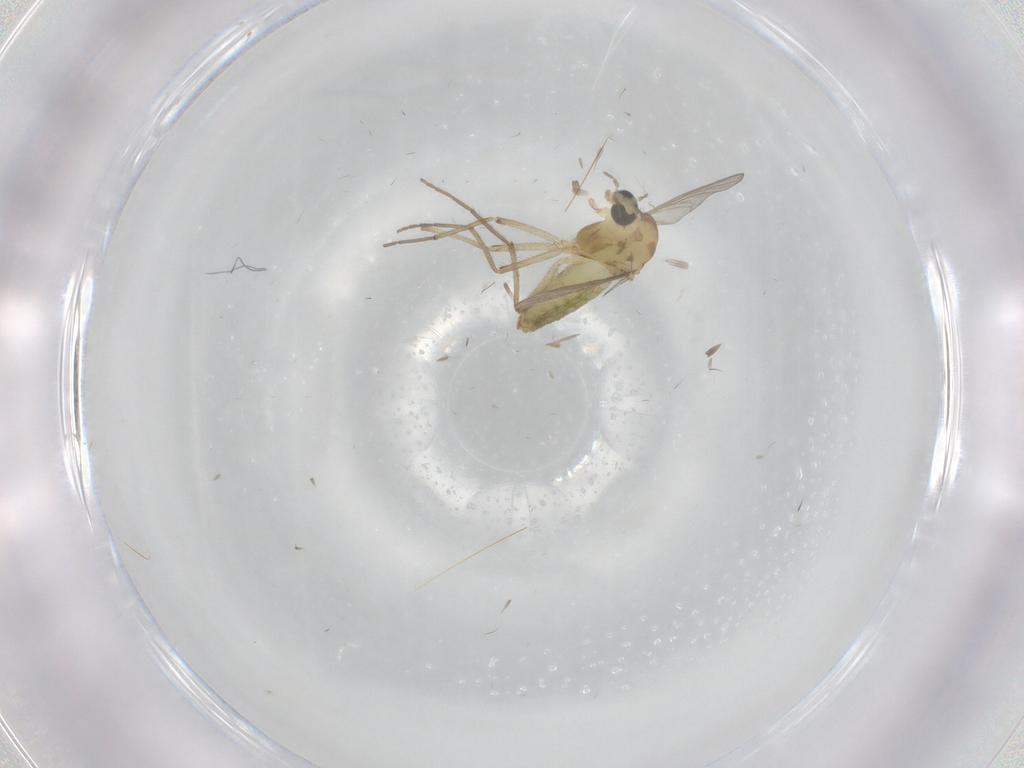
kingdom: Animalia
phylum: Arthropoda
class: Insecta
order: Diptera
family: Chironomidae
